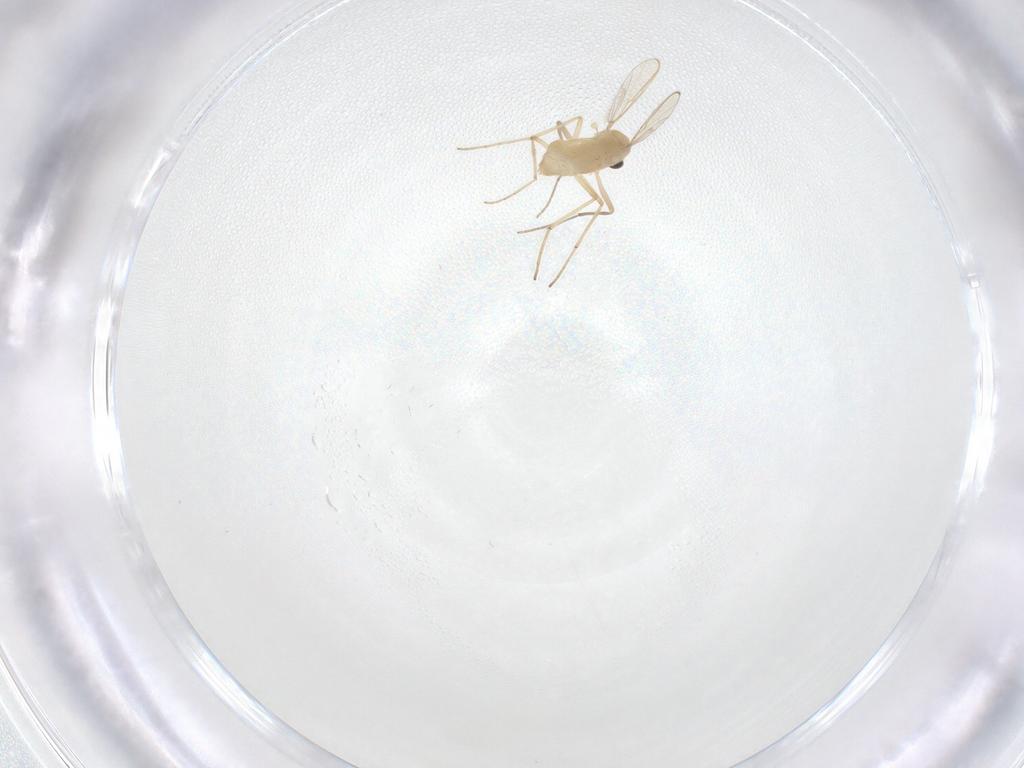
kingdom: Animalia
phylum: Arthropoda
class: Insecta
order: Diptera
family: Chironomidae
